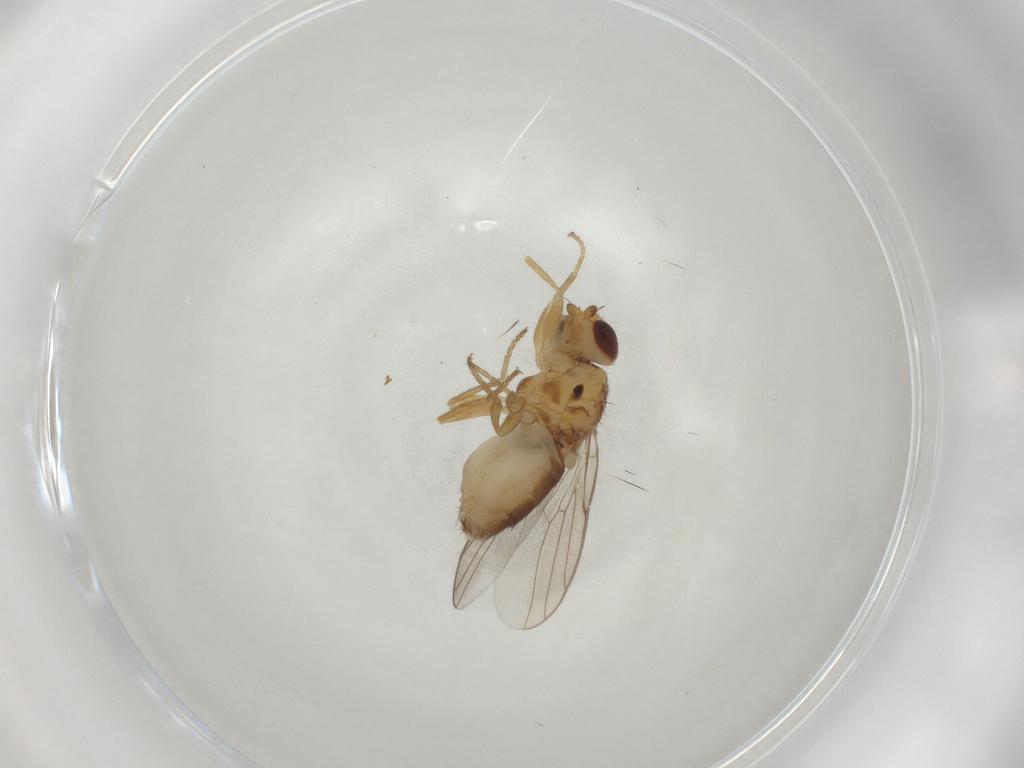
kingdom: Animalia
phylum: Arthropoda
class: Insecta
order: Diptera
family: Chloropidae
